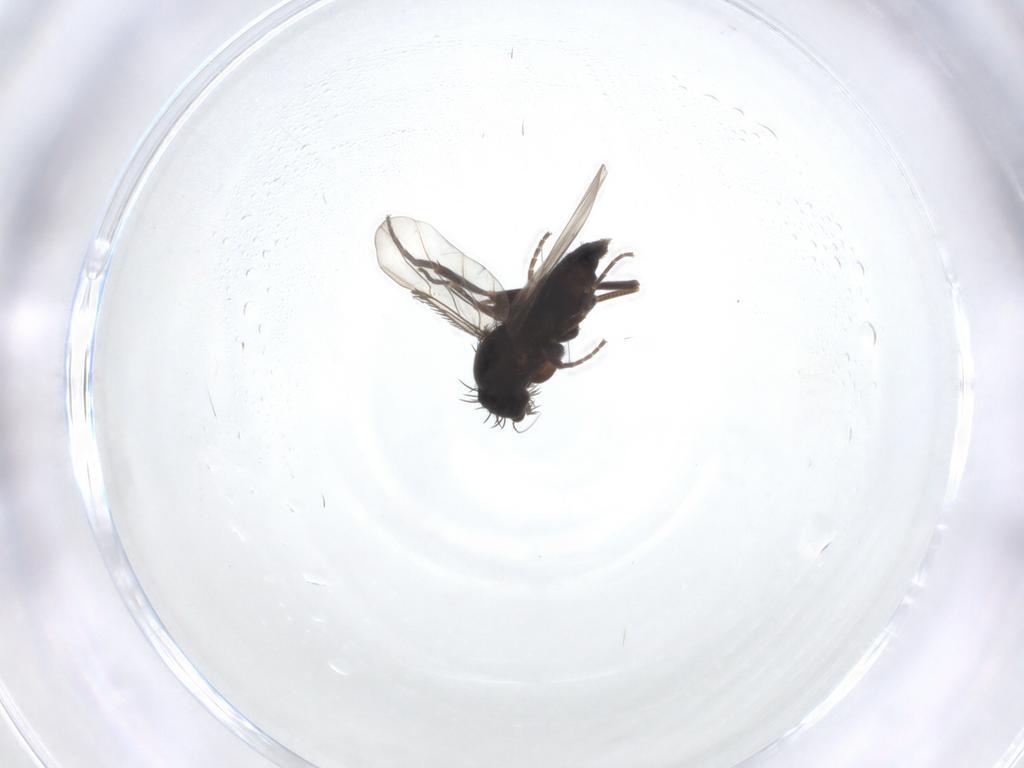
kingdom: Animalia
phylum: Arthropoda
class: Insecta
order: Diptera
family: Phoridae
